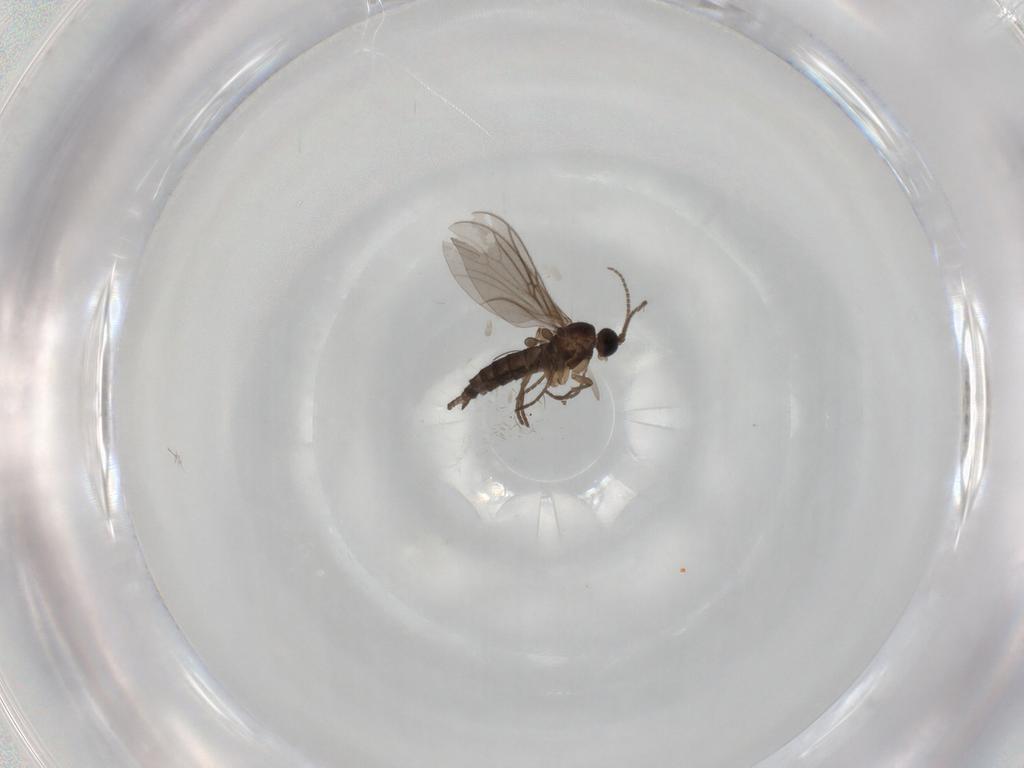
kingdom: Animalia
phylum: Arthropoda
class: Insecta
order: Diptera
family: Sciaridae
